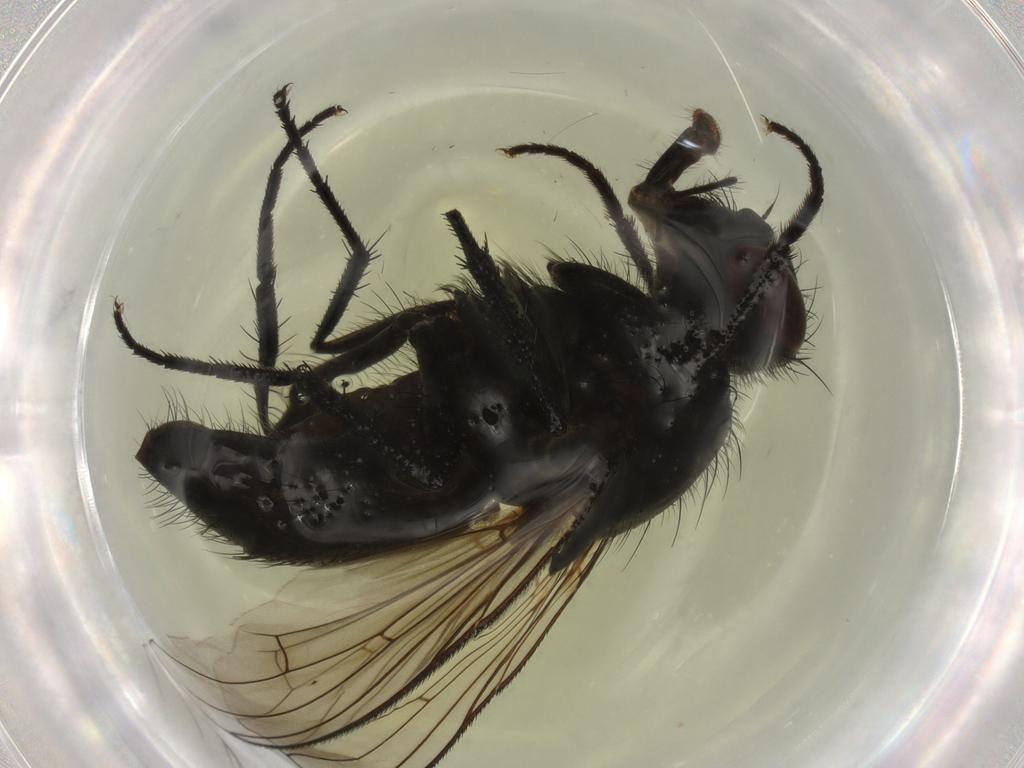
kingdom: Animalia
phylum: Arthropoda
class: Insecta
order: Diptera
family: Muscidae
